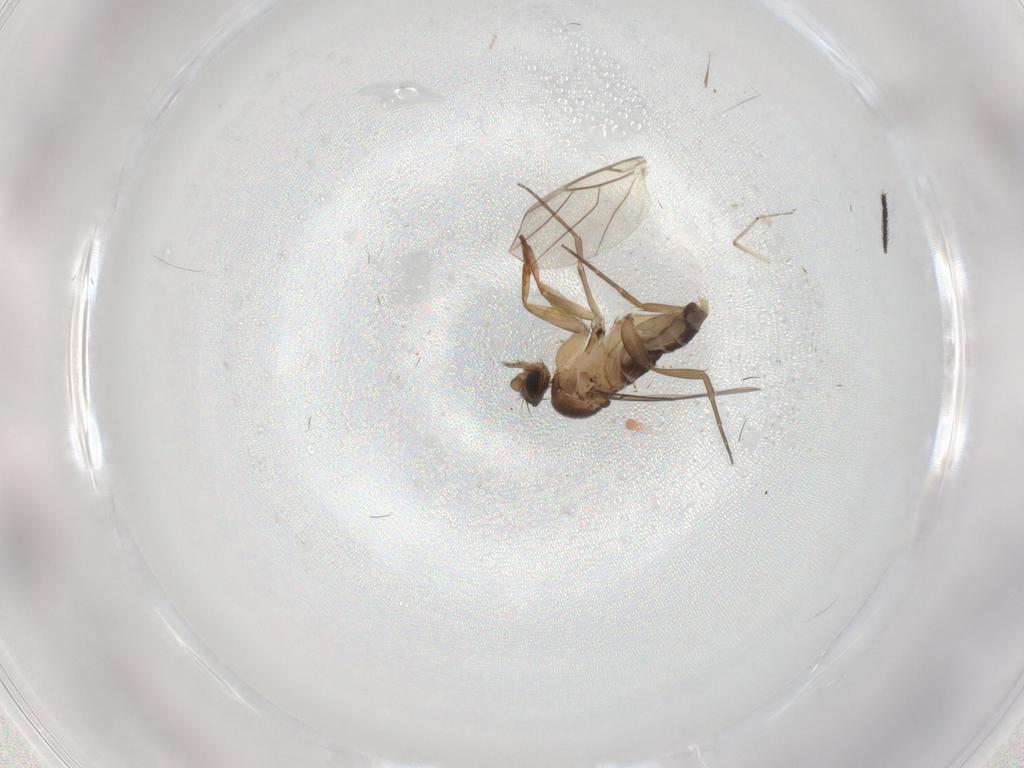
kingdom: Animalia
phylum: Arthropoda
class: Insecta
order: Diptera
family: Phoridae
